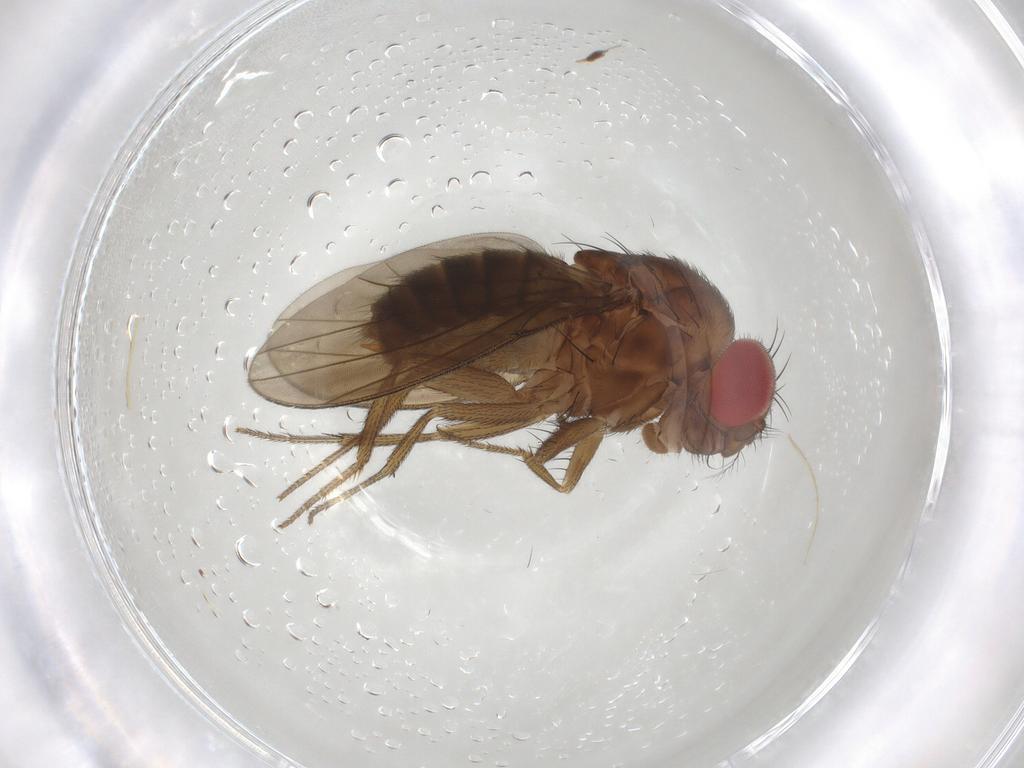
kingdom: Animalia
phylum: Arthropoda
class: Insecta
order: Diptera
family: Drosophilidae
